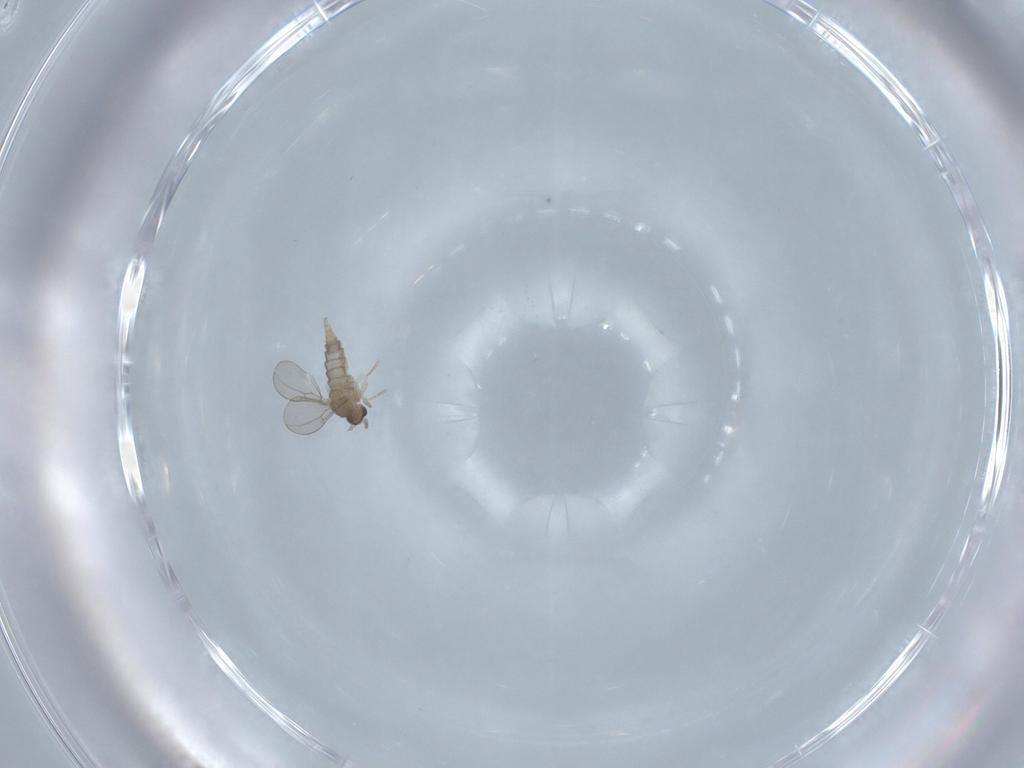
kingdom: Animalia
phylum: Arthropoda
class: Insecta
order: Diptera
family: Cecidomyiidae
